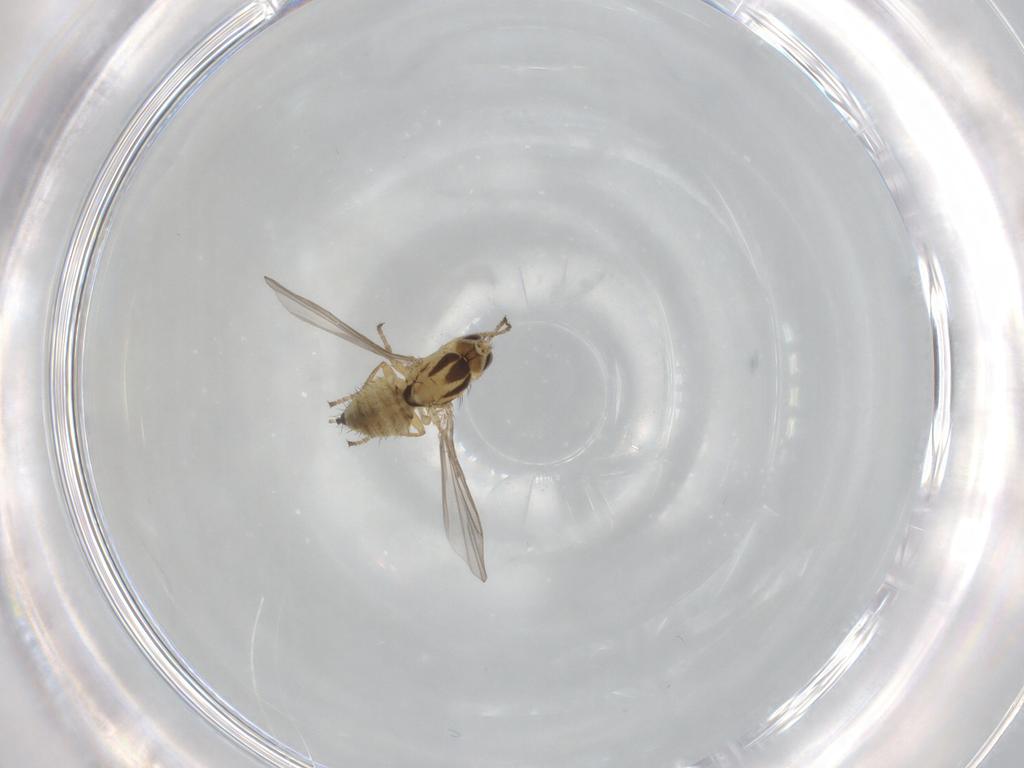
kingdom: Animalia
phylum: Arthropoda
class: Insecta
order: Diptera
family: Agromyzidae
